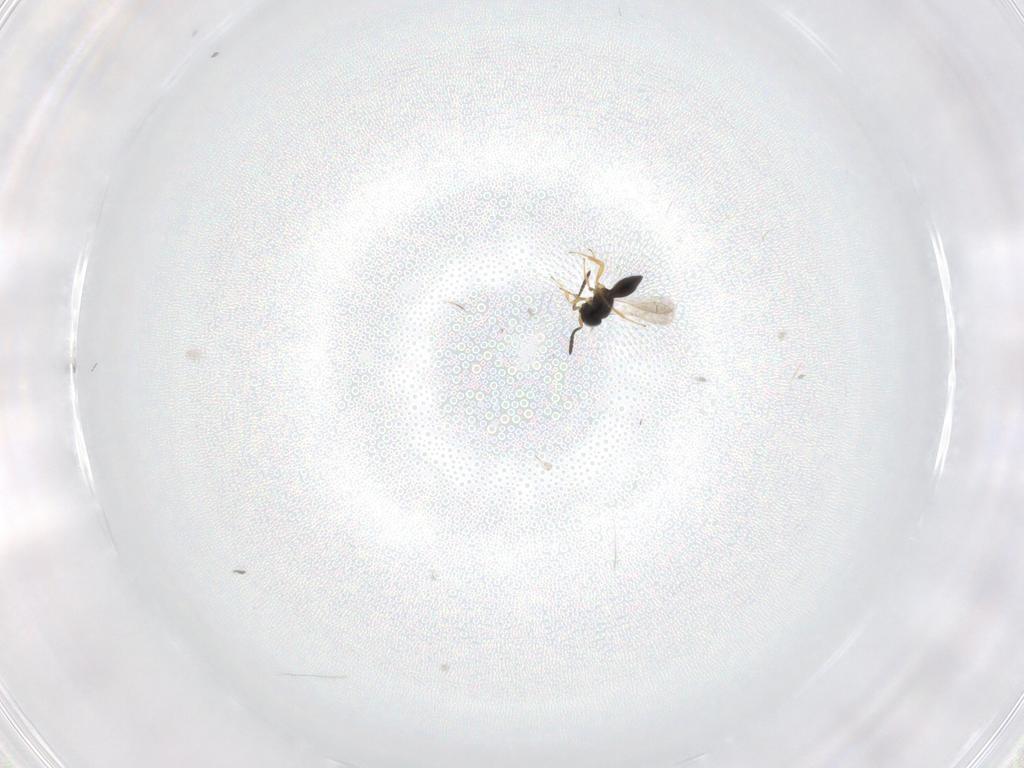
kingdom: Animalia
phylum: Arthropoda
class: Insecta
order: Hymenoptera
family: Scelionidae
